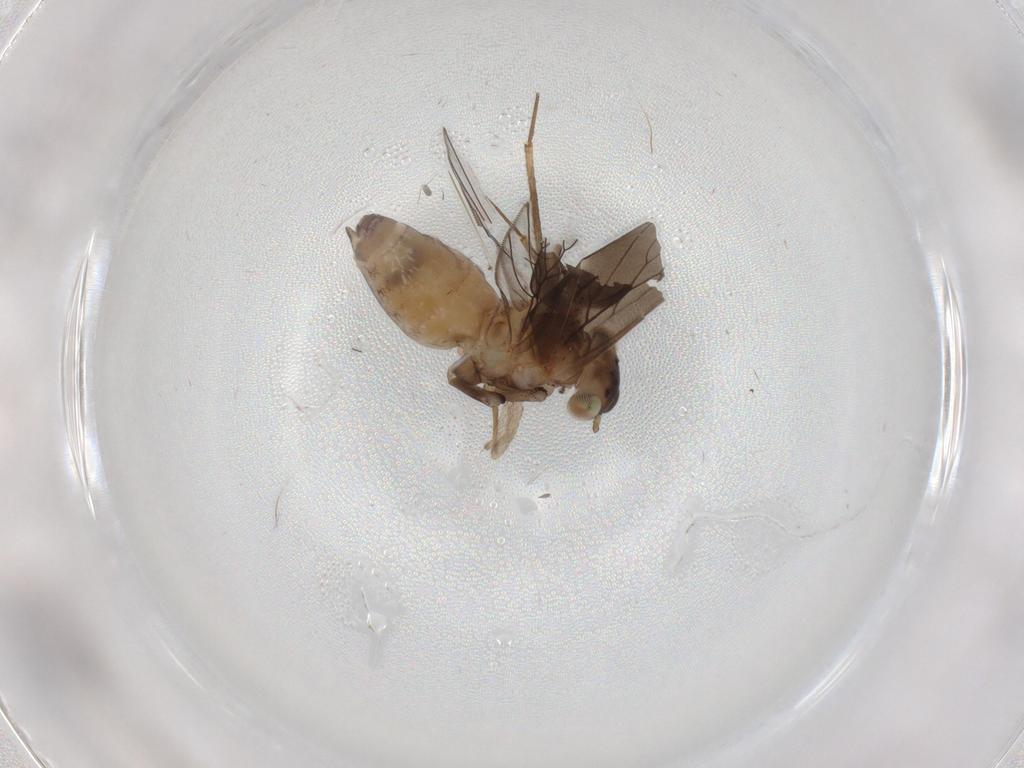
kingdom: Animalia
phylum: Arthropoda
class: Insecta
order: Psocodea
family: Lepidopsocidae
